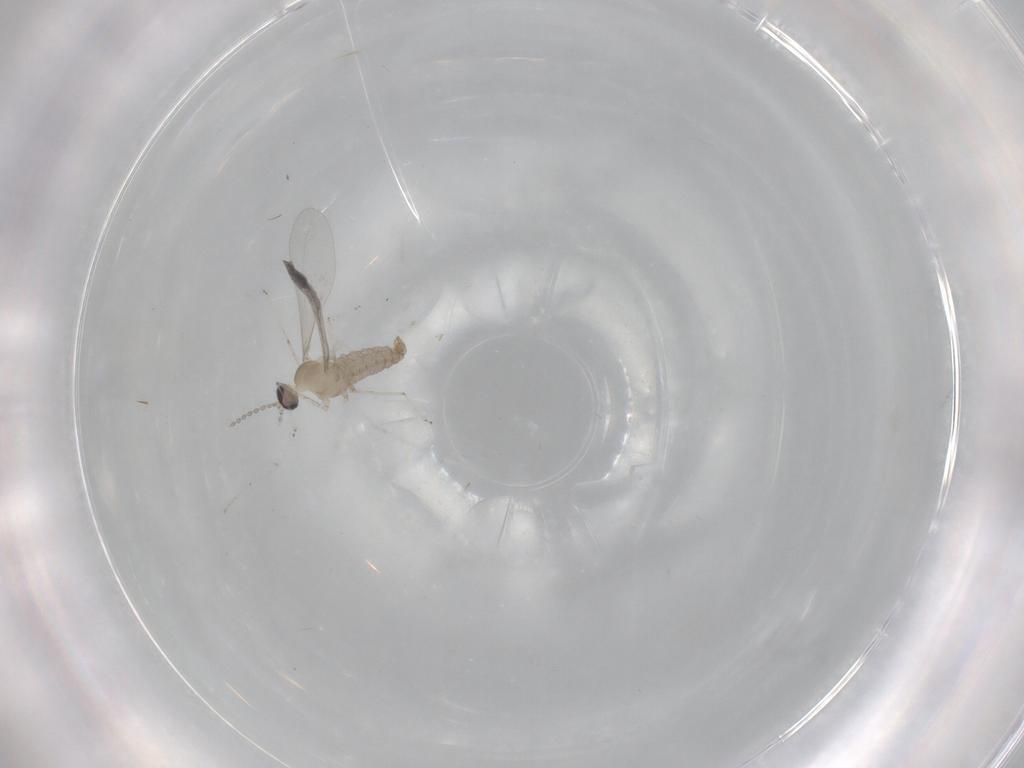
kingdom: Animalia
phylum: Arthropoda
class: Insecta
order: Diptera
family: Cecidomyiidae
